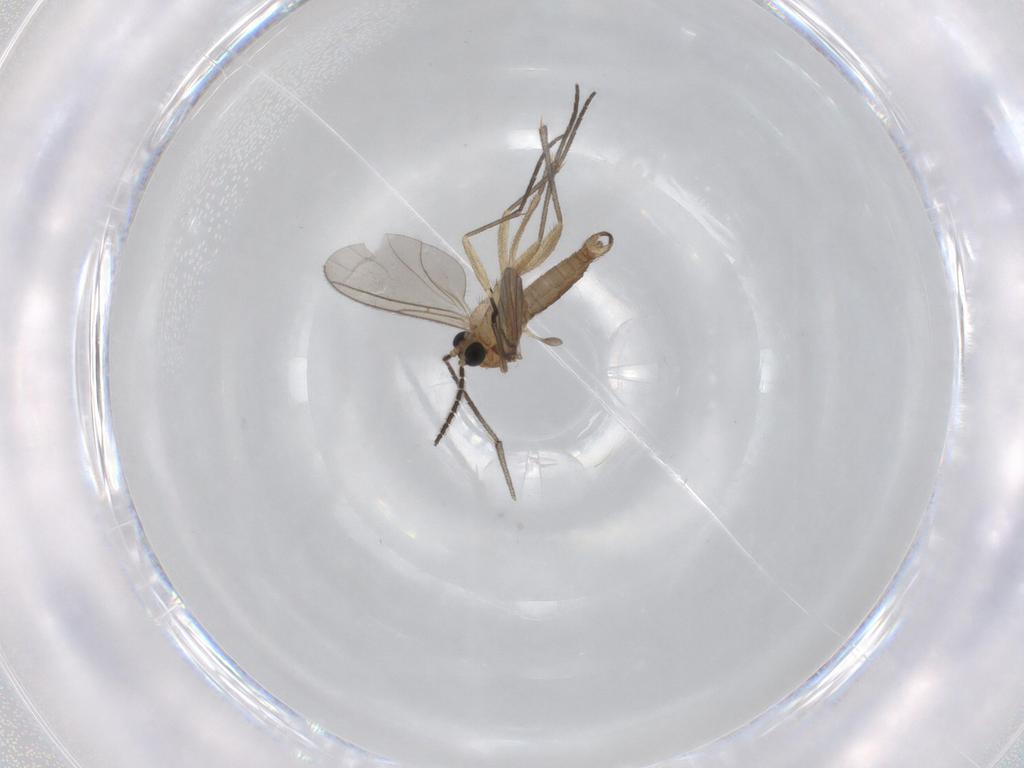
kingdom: Animalia
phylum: Arthropoda
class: Insecta
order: Diptera
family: Sciaridae
